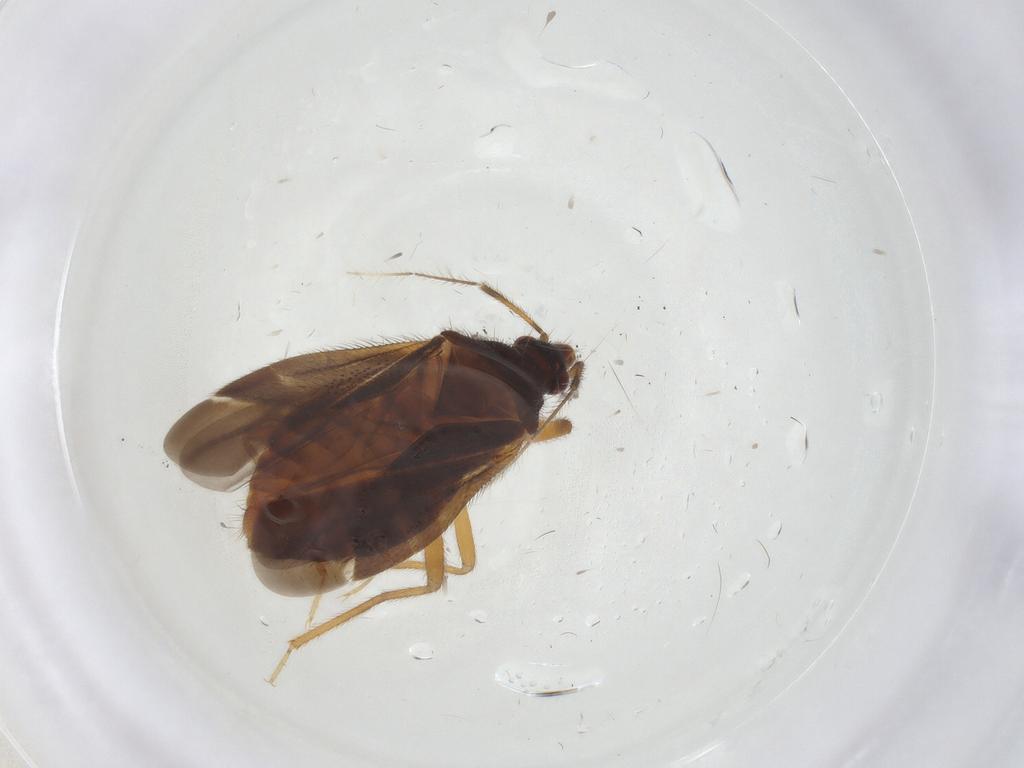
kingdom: Animalia
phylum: Arthropoda
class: Insecta
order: Hemiptera
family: Anthocoridae
